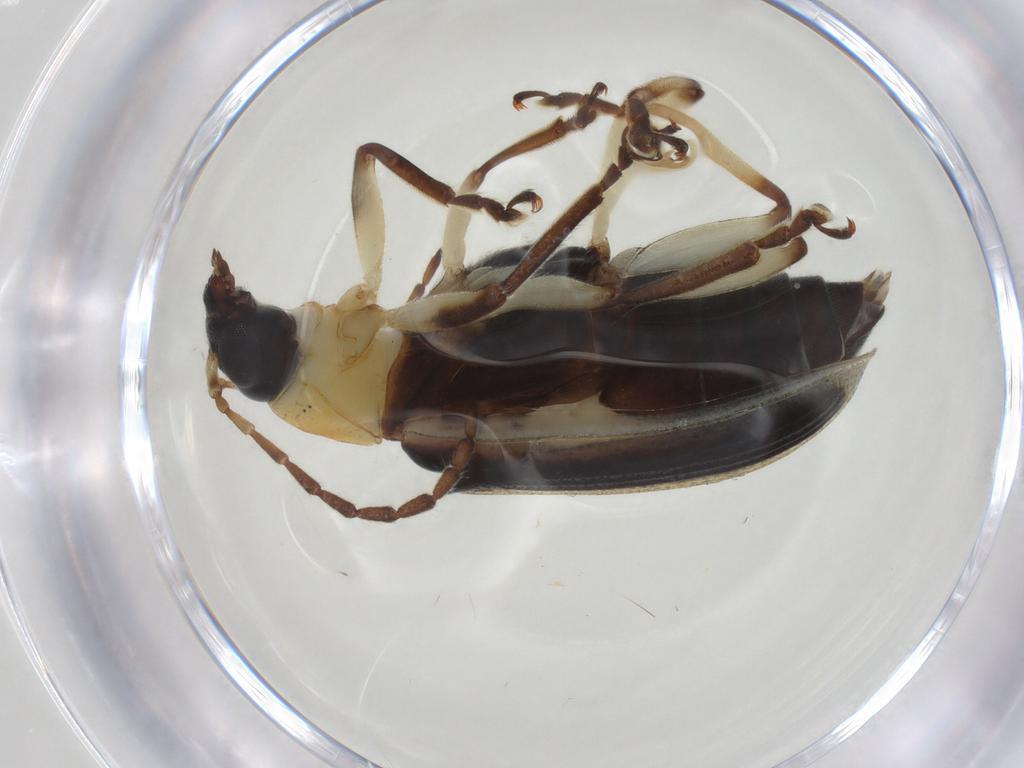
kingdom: Animalia
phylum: Arthropoda
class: Insecta
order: Coleoptera
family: Chrysomelidae
